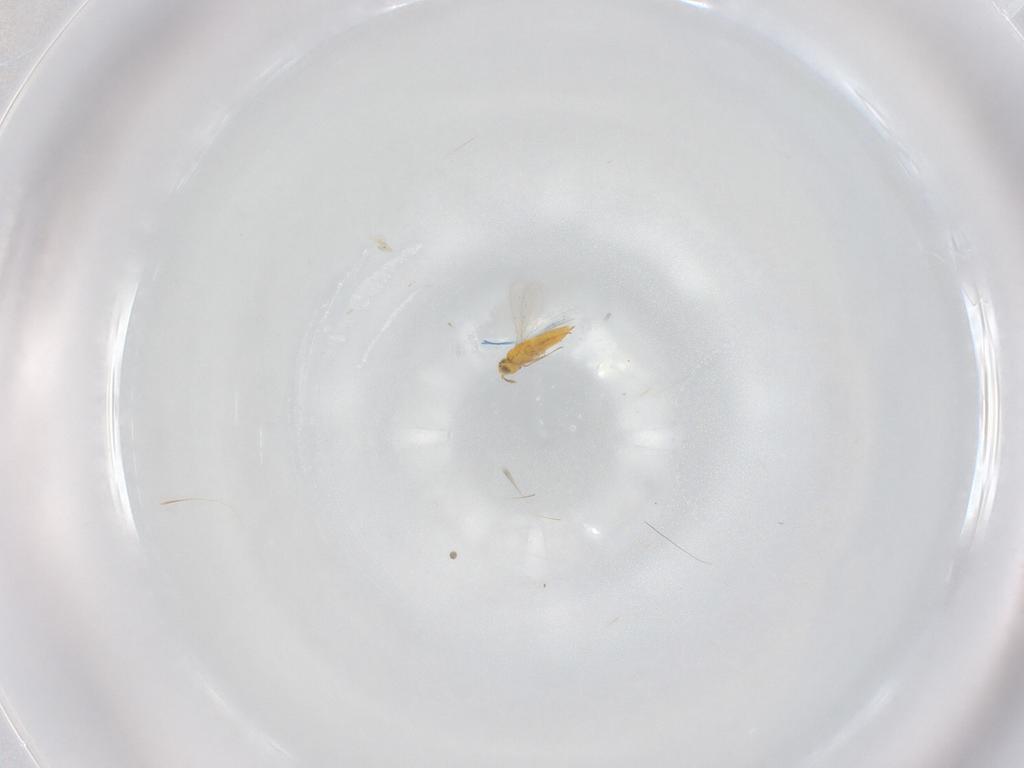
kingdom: Animalia
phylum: Arthropoda
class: Insecta
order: Hymenoptera
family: Aphelinidae
